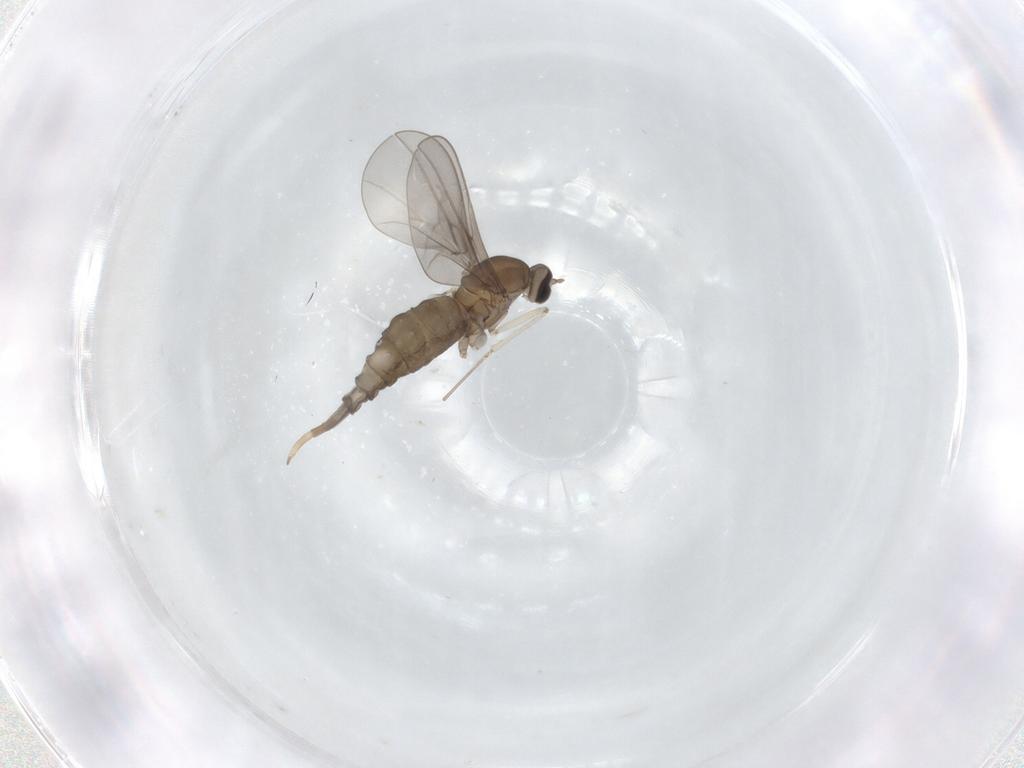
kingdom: Animalia
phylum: Arthropoda
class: Insecta
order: Diptera
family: Cecidomyiidae
